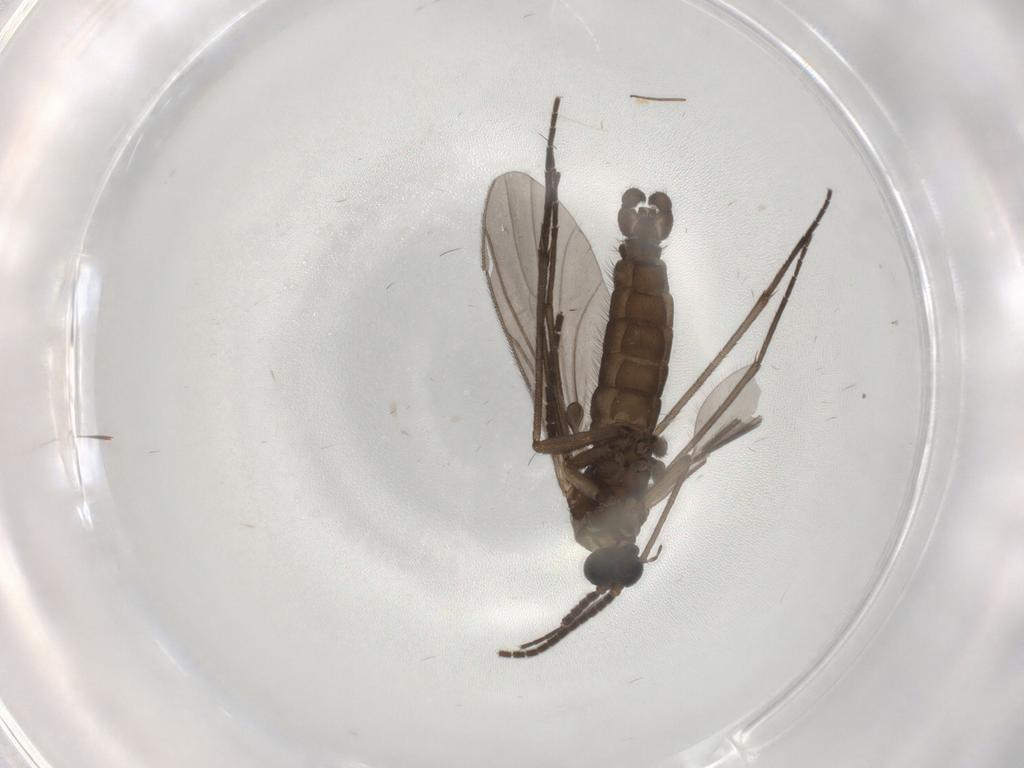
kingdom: Animalia
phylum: Arthropoda
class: Insecta
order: Diptera
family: Sciaridae
